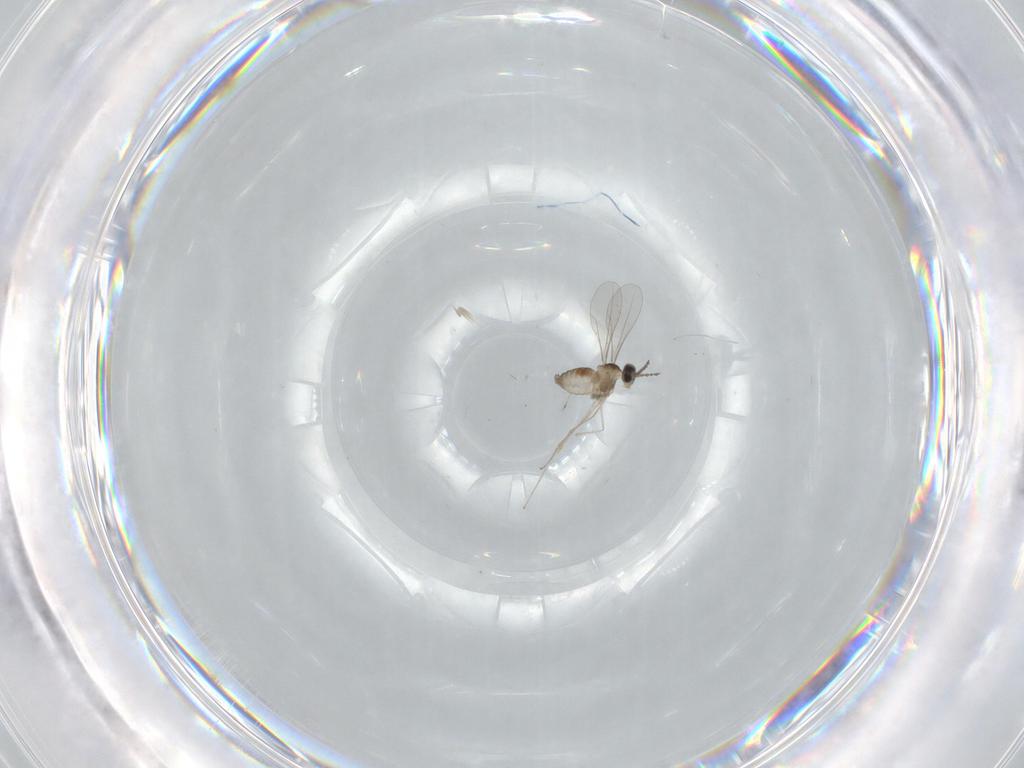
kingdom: Animalia
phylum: Arthropoda
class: Insecta
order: Diptera
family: Cecidomyiidae
